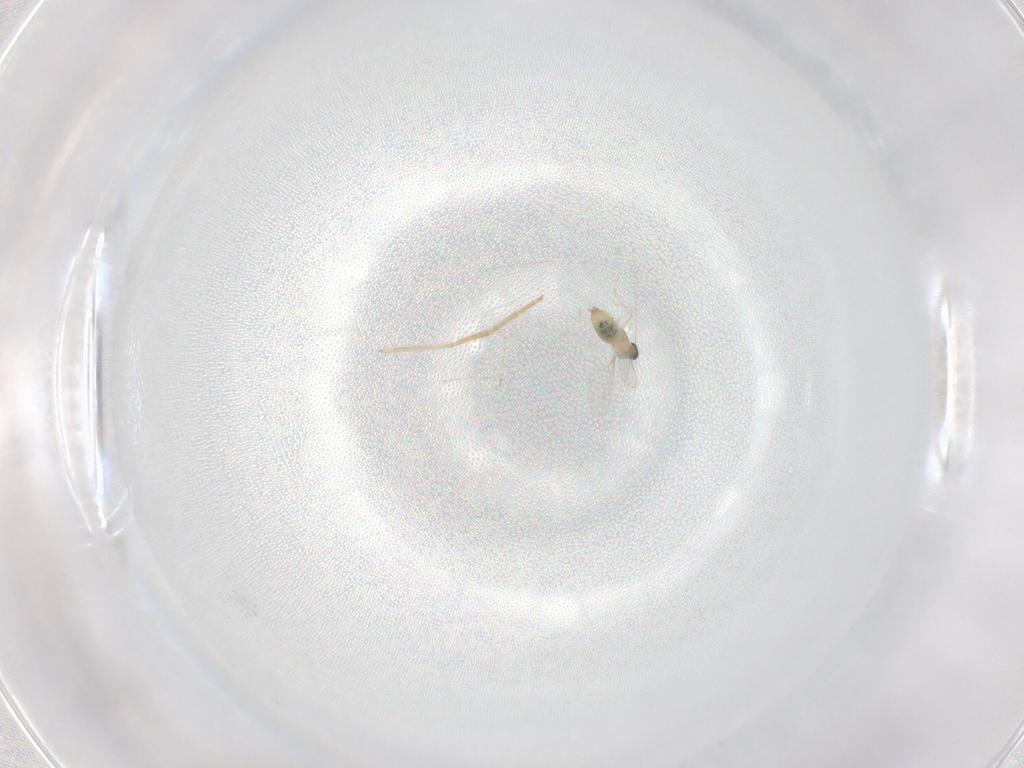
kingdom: Animalia
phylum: Arthropoda
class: Insecta
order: Diptera
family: Cecidomyiidae
